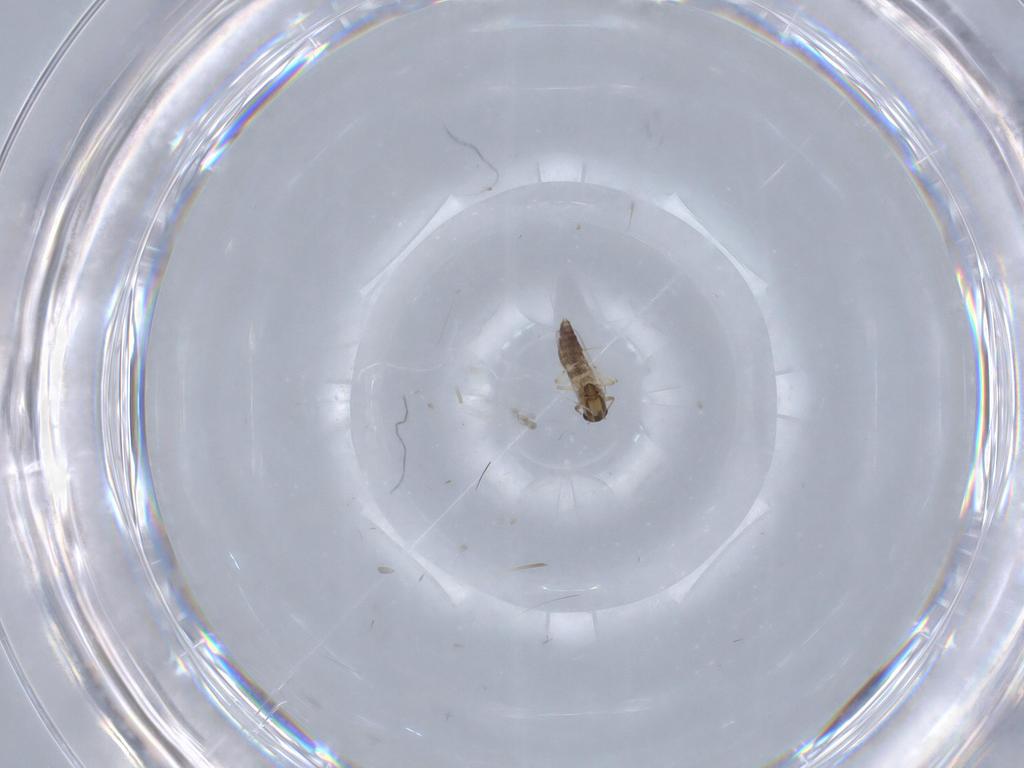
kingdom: Animalia
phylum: Arthropoda
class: Insecta
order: Diptera
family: Chironomidae
